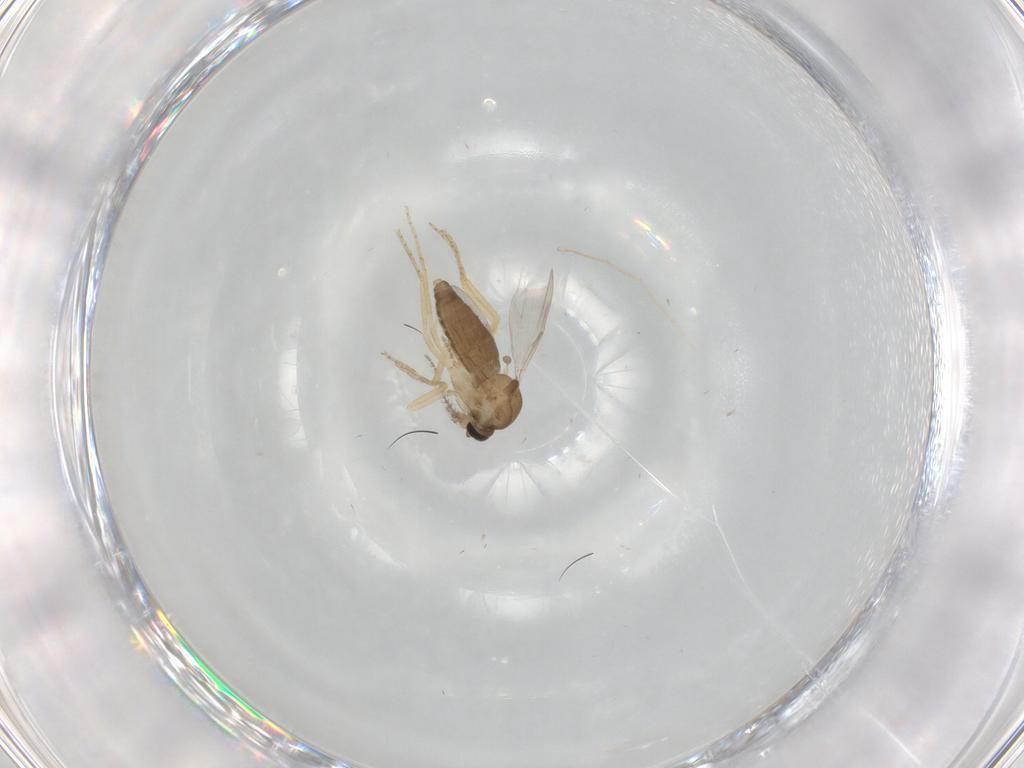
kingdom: Animalia
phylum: Arthropoda
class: Insecta
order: Diptera
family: Ceratopogonidae
